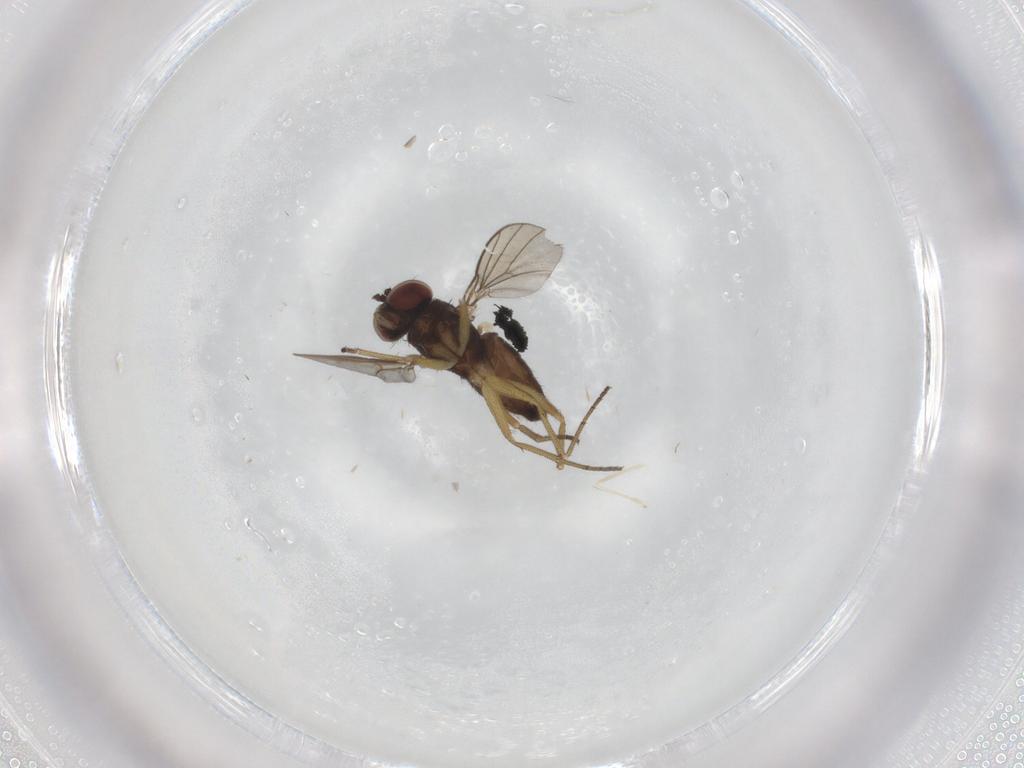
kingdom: Animalia
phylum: Arthropoda
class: Insecta
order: Diptera
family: Dolichopodidae
